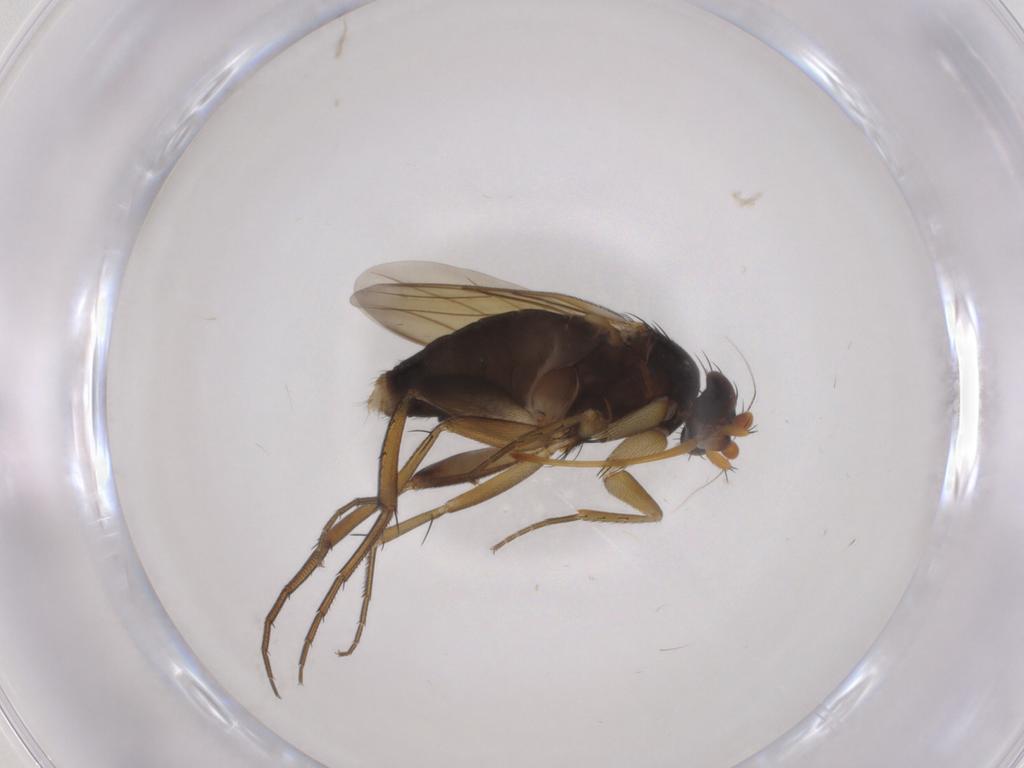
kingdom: Animalia
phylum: Arthropoda
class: Insecta
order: Diptera
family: Phoridae
